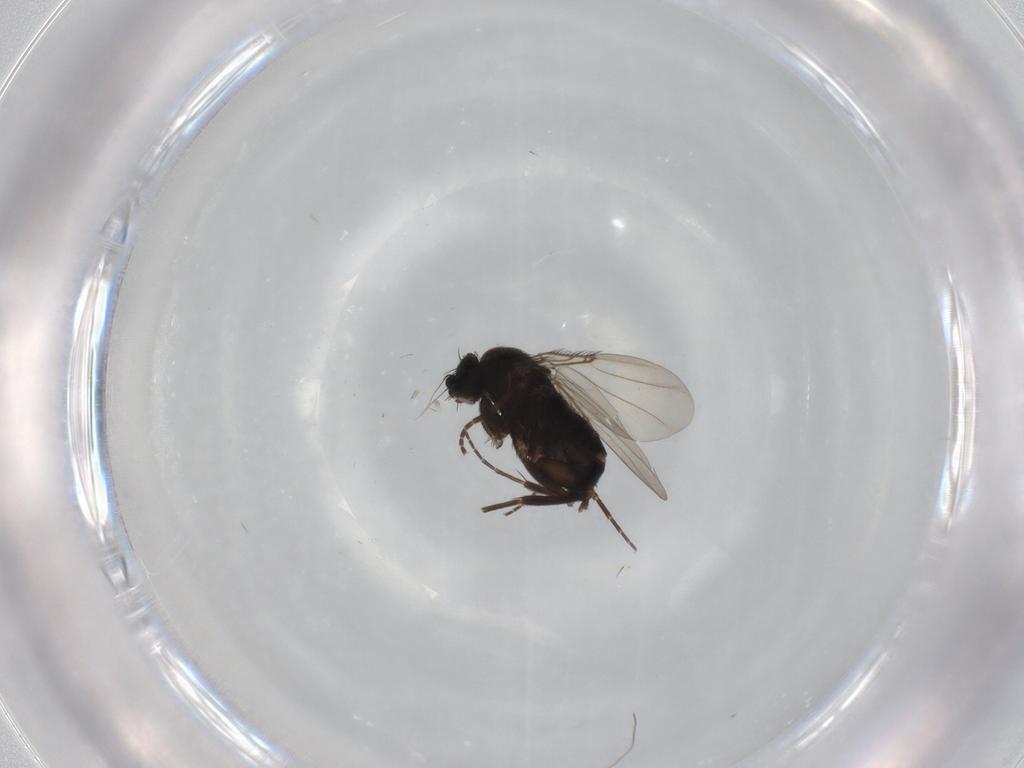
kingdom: Animalia
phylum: Arthropoda
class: Insecta
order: Diptera
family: Phoridae
